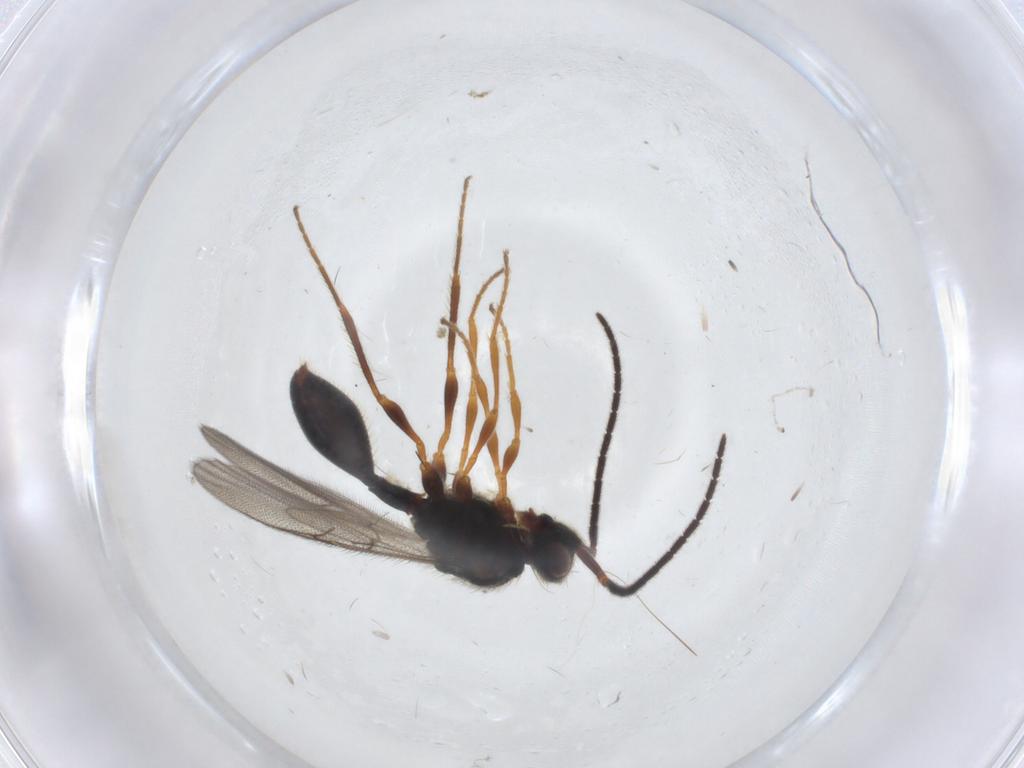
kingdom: Animalia
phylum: Arthropoda
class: Insecta
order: Hymenoptera
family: Diapriidae
